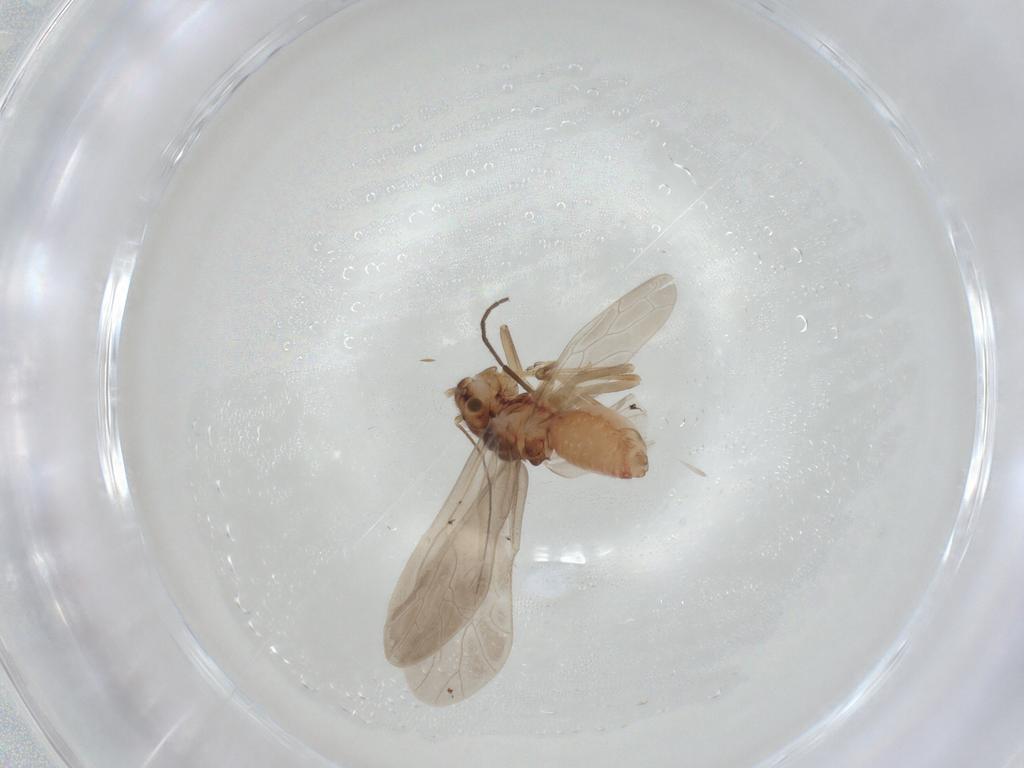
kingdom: Animalia
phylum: Arthropoda
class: Insecta
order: Psocodea
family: Caeciliusidae
